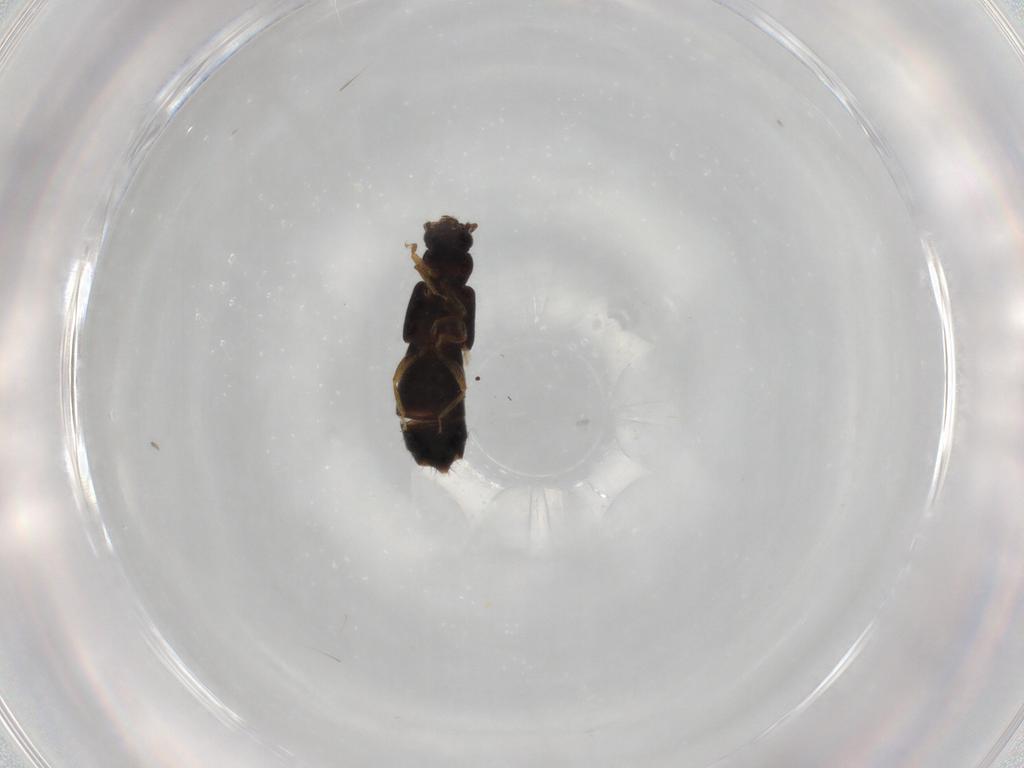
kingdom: Animalia
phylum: Arthropoda
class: Insecta
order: Coleoptera
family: Staphylinidae
